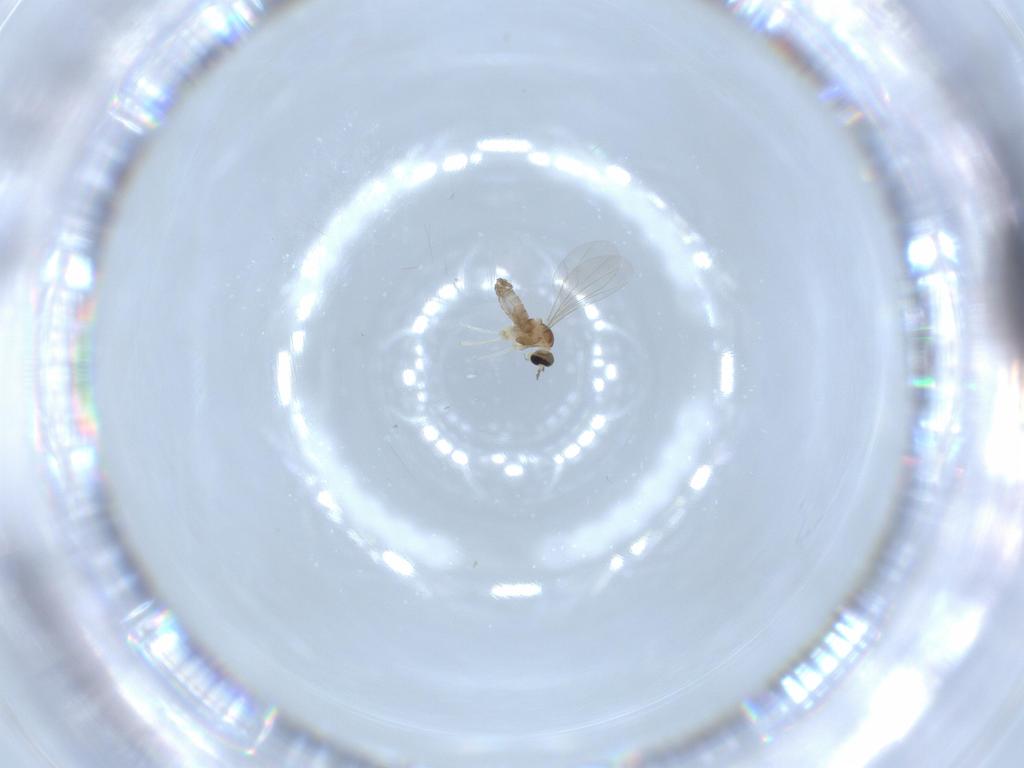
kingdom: Animalia
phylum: Arthropoda
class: Insecta
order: Diptera
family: Cecidomyiidae
